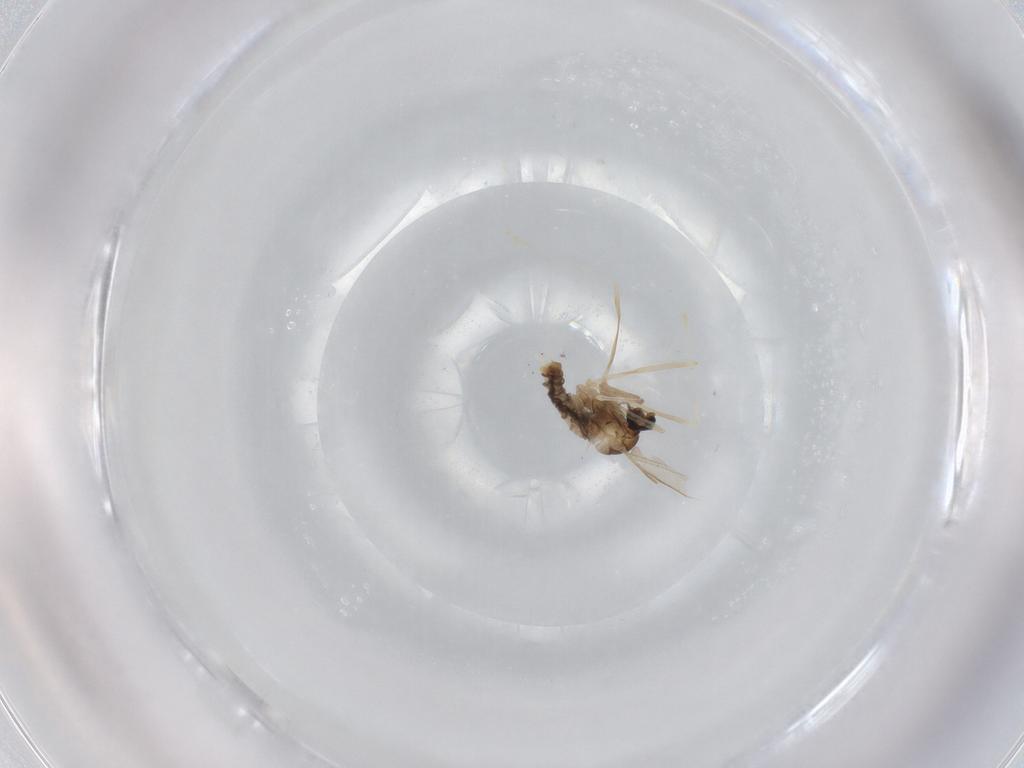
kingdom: Animalia
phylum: Arthropoda
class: Insecta
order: Diptera
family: Cecidomyiidae
